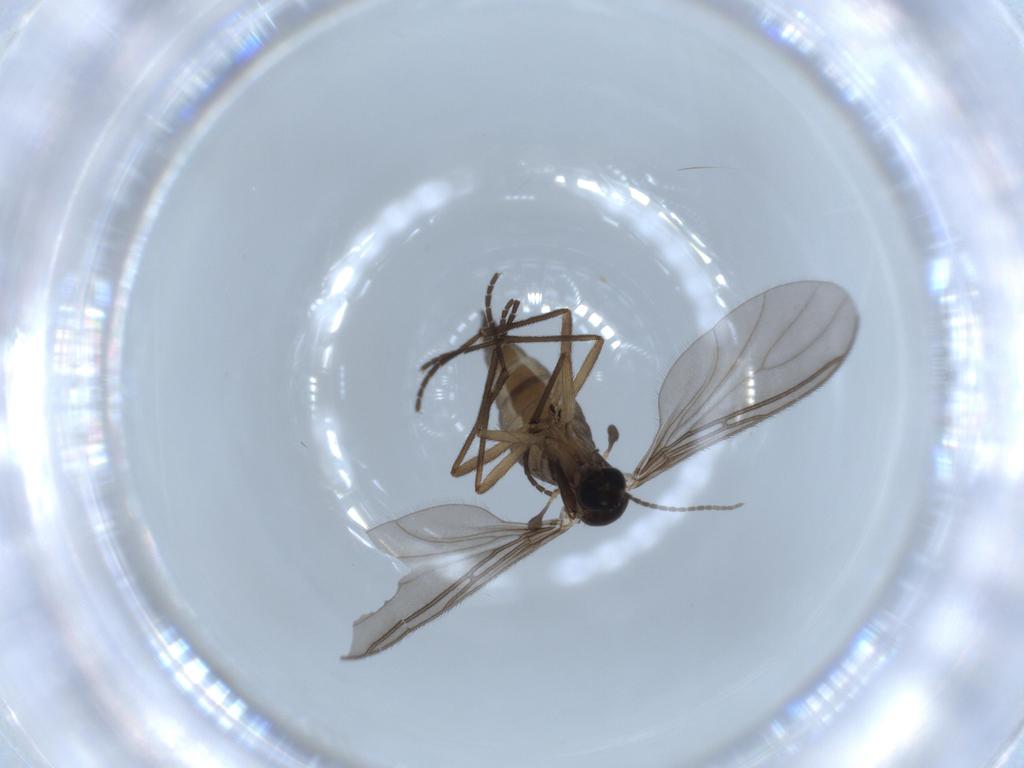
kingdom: Animalia
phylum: Arthropoda
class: Insecta
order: Diptera
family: Sciaridae
